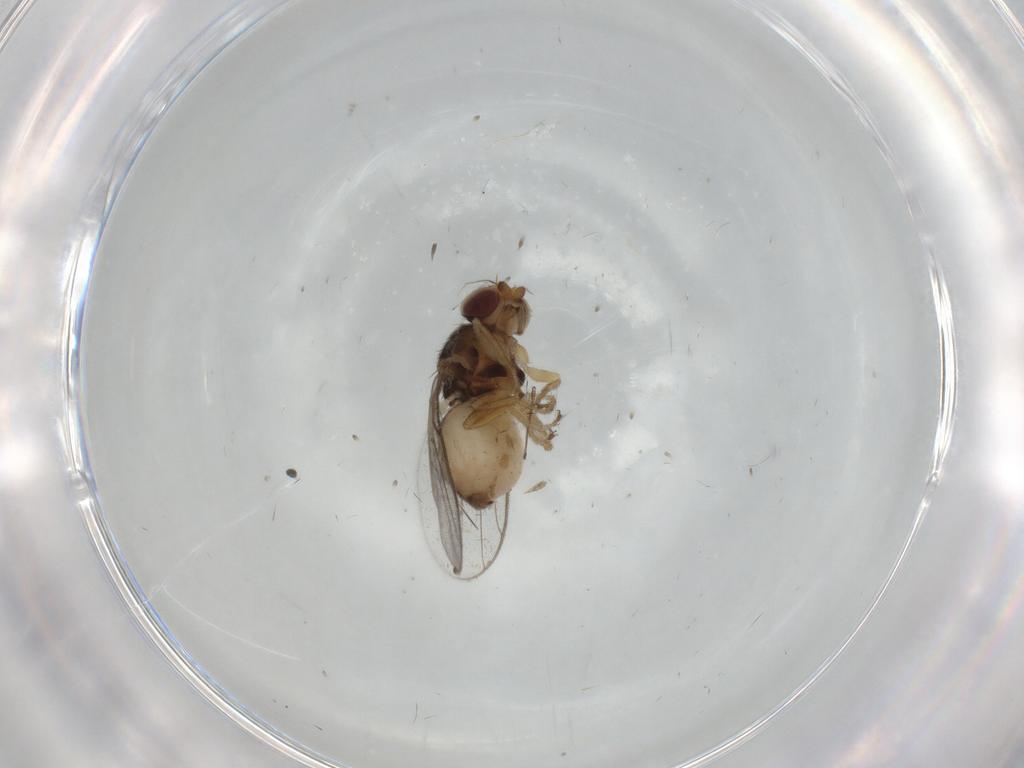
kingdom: Animalia
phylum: Arthropoda
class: Insecta
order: Diptera
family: Chloropidae
